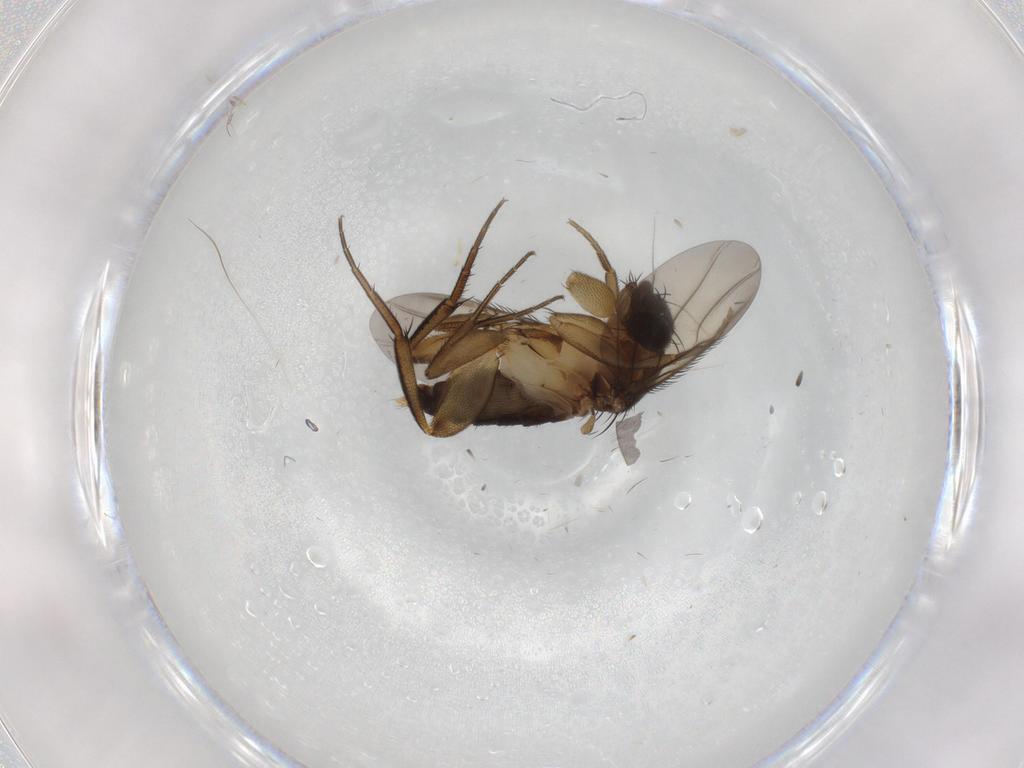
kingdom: Animalia
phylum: Arthropoda
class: Insecta
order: Diptera
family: Phoridae
